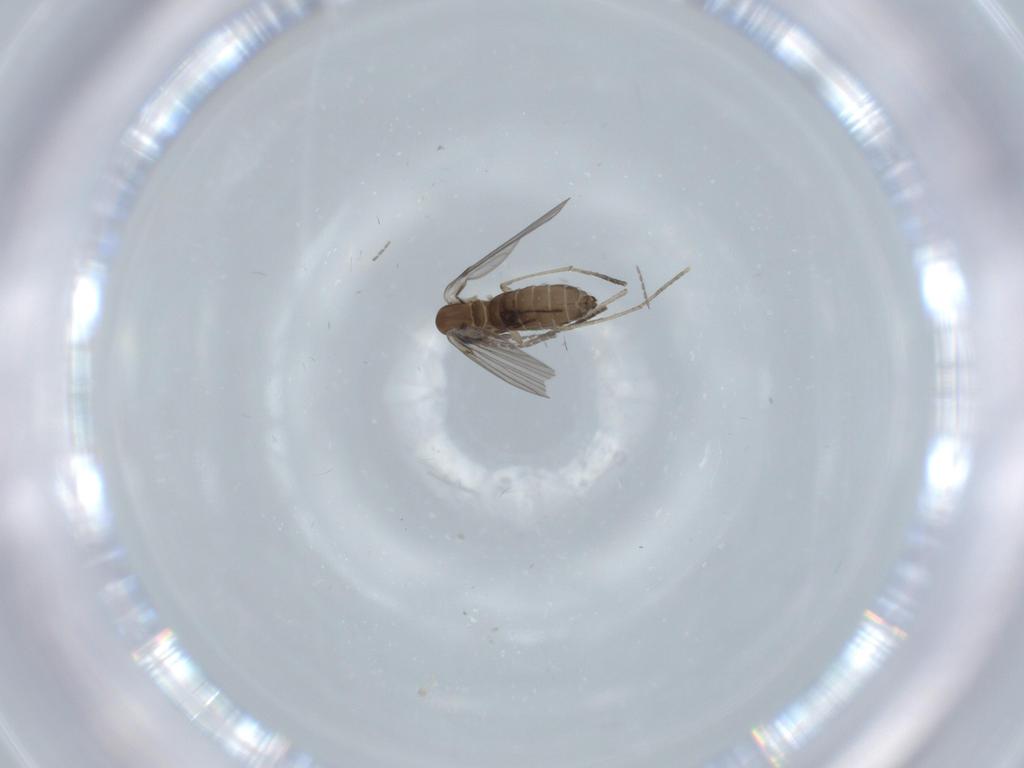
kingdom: Animalia
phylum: Arthropoda
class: Insecta
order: Diptera
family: Psychodidae
